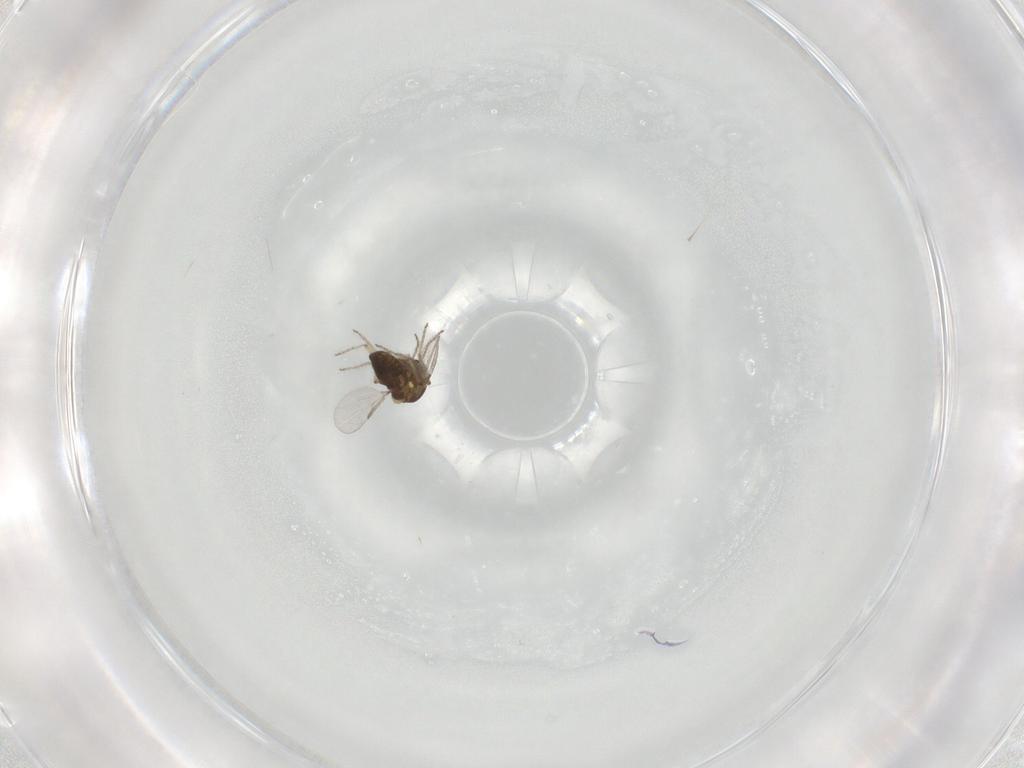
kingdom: Animalia
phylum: Arthropoda
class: Insecta
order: Diptera
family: Ceratopogonidae
